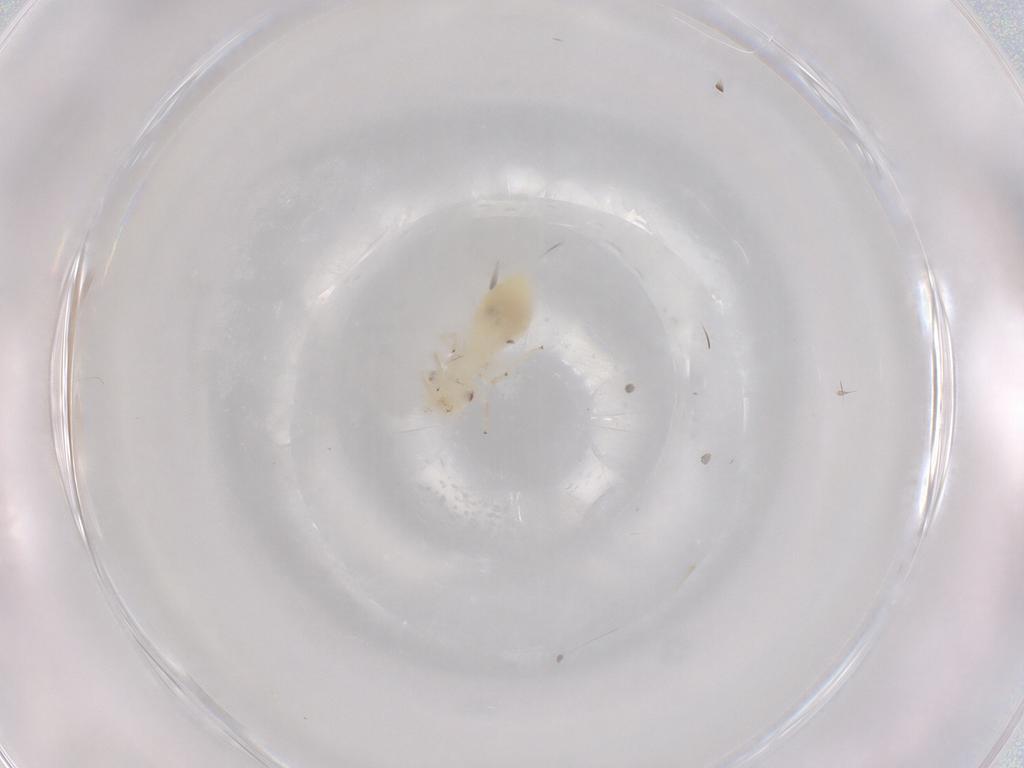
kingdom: Animalia
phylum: Arthropoda
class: Insecta
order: Psocodea
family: Caeciliusidae
